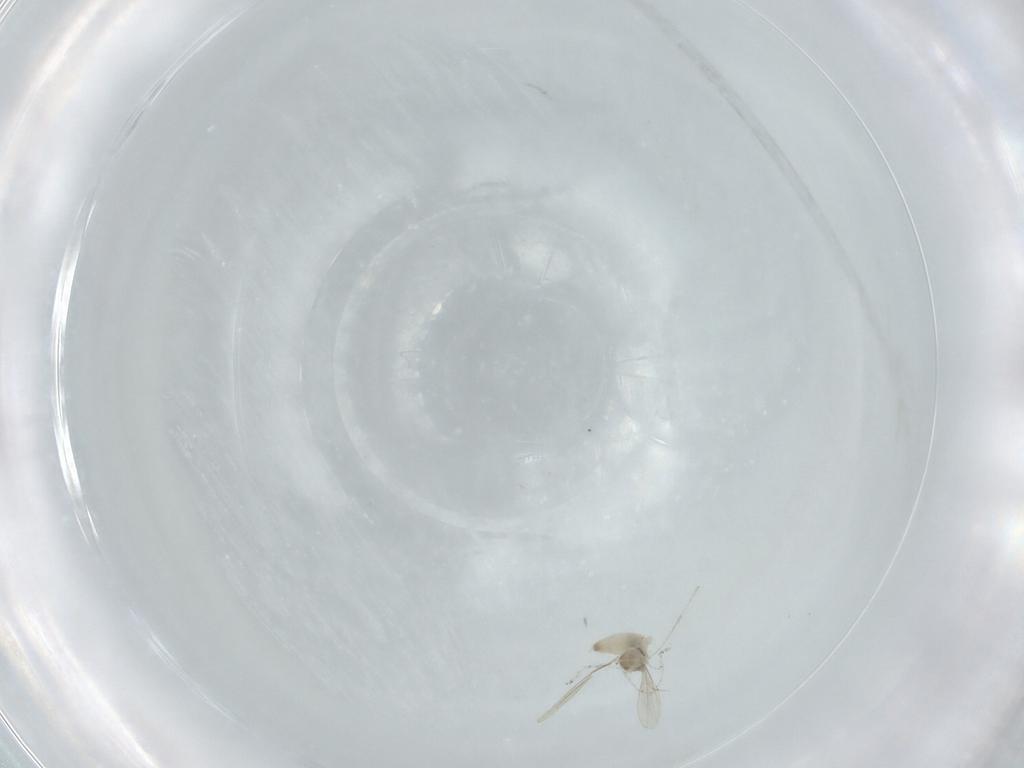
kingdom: Animalia
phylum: Arthropoda
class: Insecta
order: Diptera
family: Cecidomyiidae
